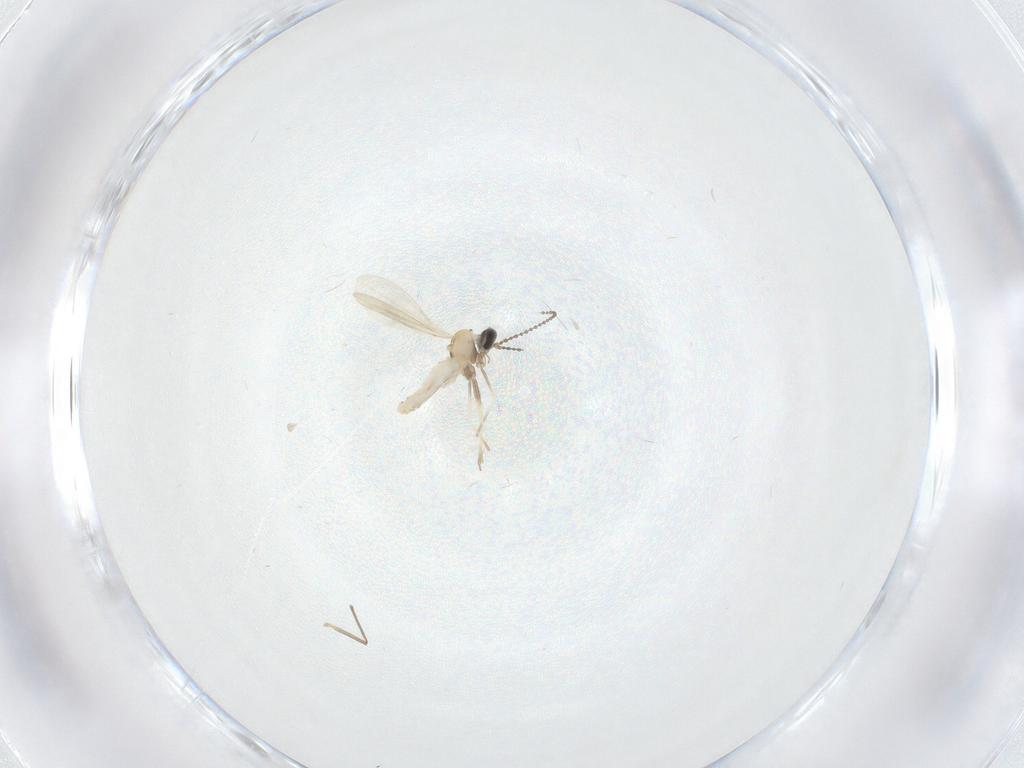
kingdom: Animalia
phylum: Arthropoda
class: Insecta
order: Diptera
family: Cecidomyiidae
